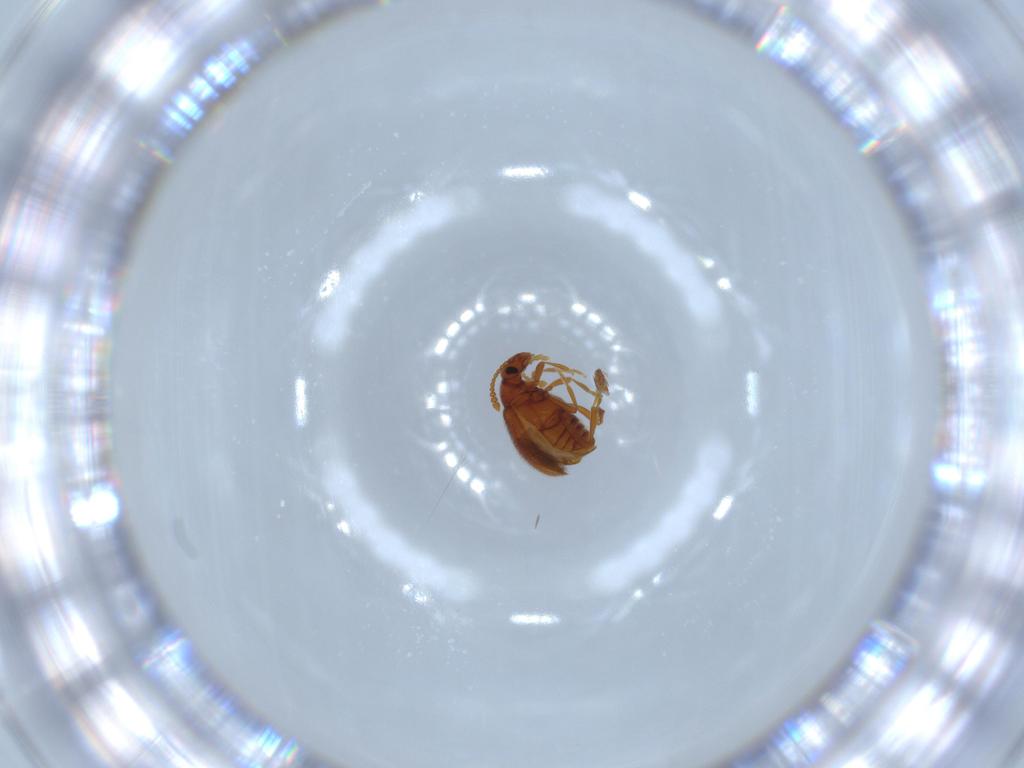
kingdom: Animalia
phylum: Arthropoda
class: Insecta
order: Coleoptera
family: Aderidae
